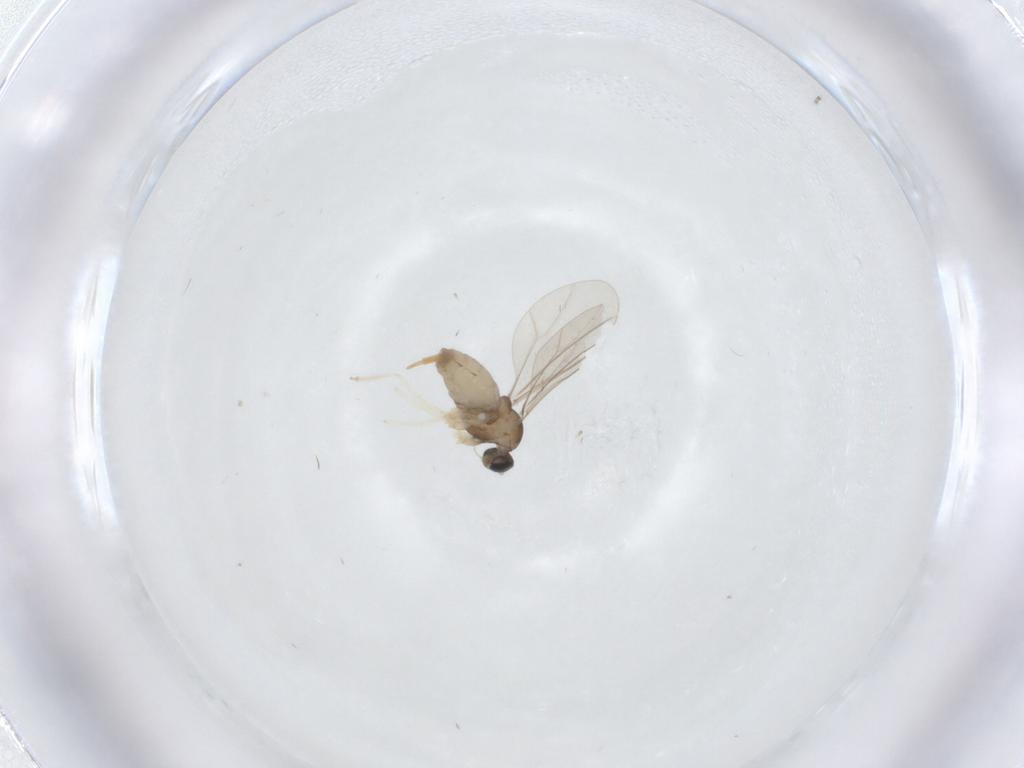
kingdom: Animalia
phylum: Arthropoda
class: Insecta
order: Diptera
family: Cecidomyiidae
